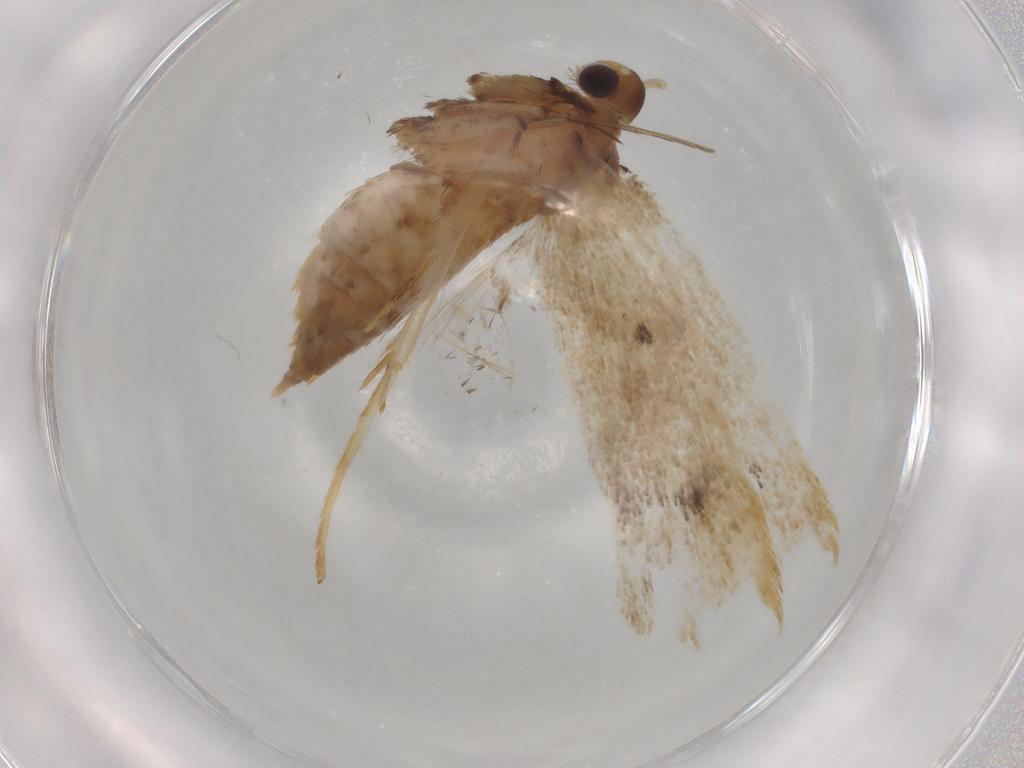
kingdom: Animalia
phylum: Arthropoda
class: Insecta
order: Lepidoptera
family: Lecithoceridae
